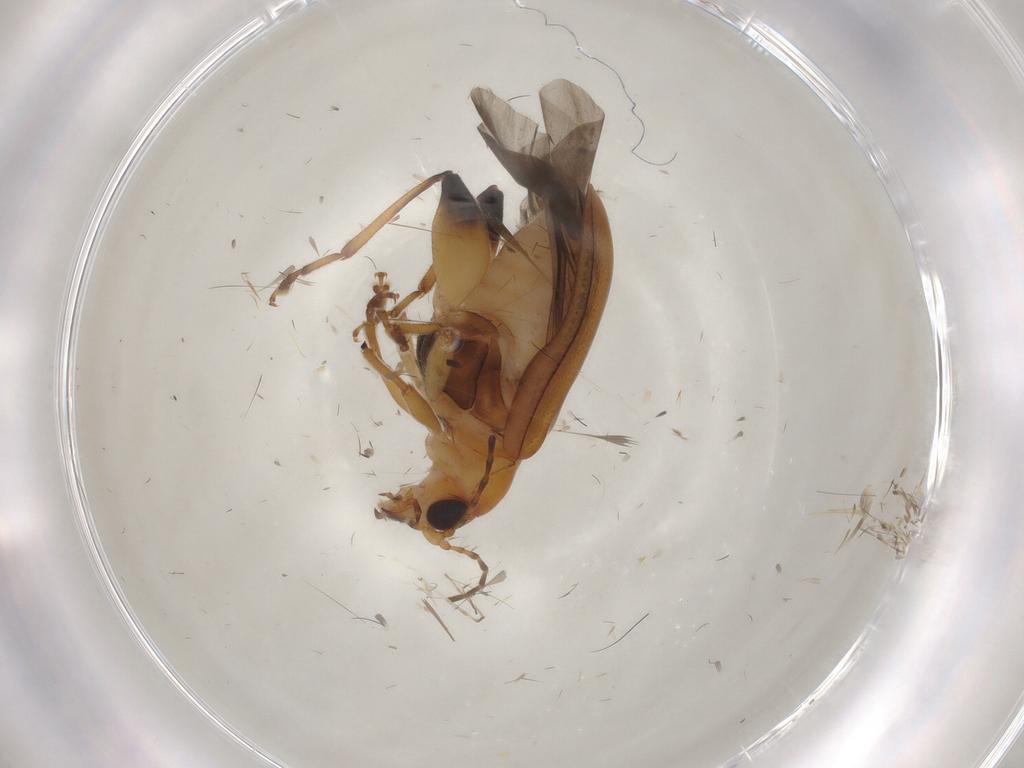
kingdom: Animalia
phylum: Arthropoda
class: Insecta
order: Coleoptera
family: Chrysomelidae
